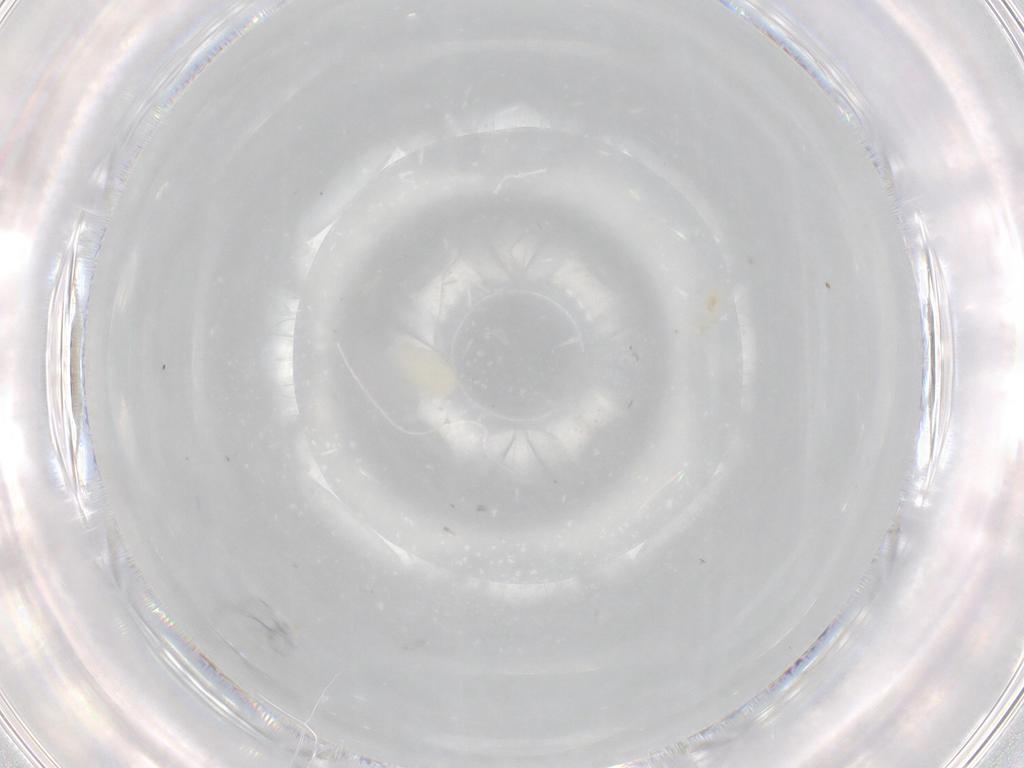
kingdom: Animalia
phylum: Arthropoda
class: Insecta
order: Psocodea
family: Lepidopsocidae
